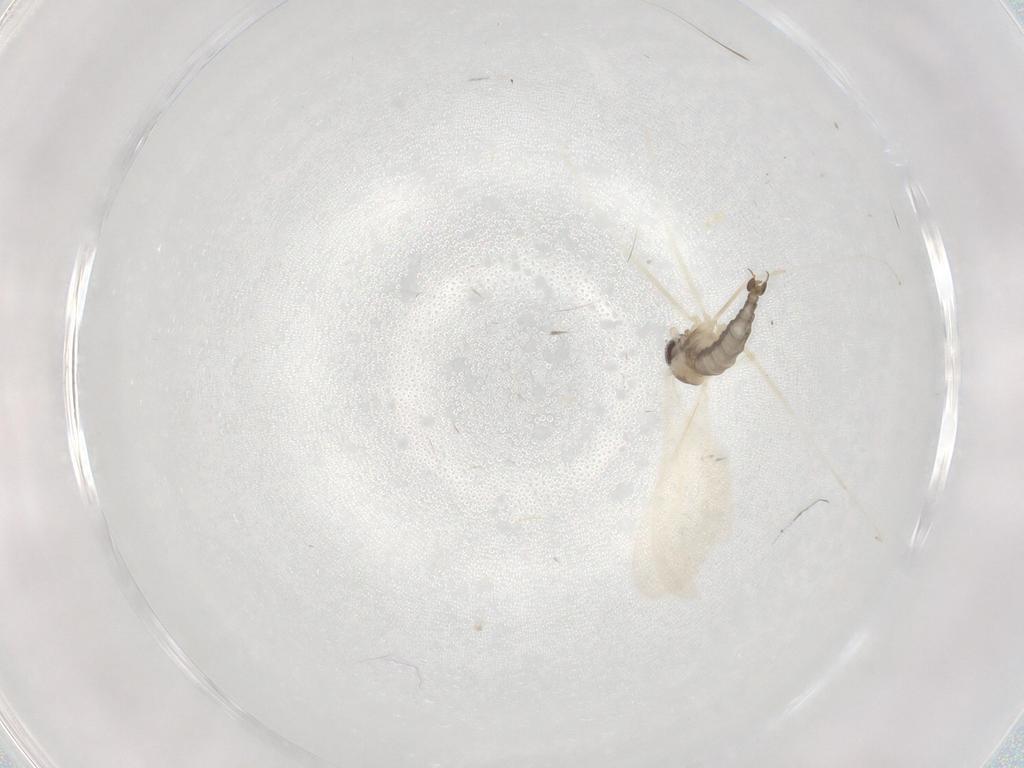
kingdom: Animalia
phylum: Arthropoda
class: Insecta
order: Diptera
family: Cecidomyiidae
